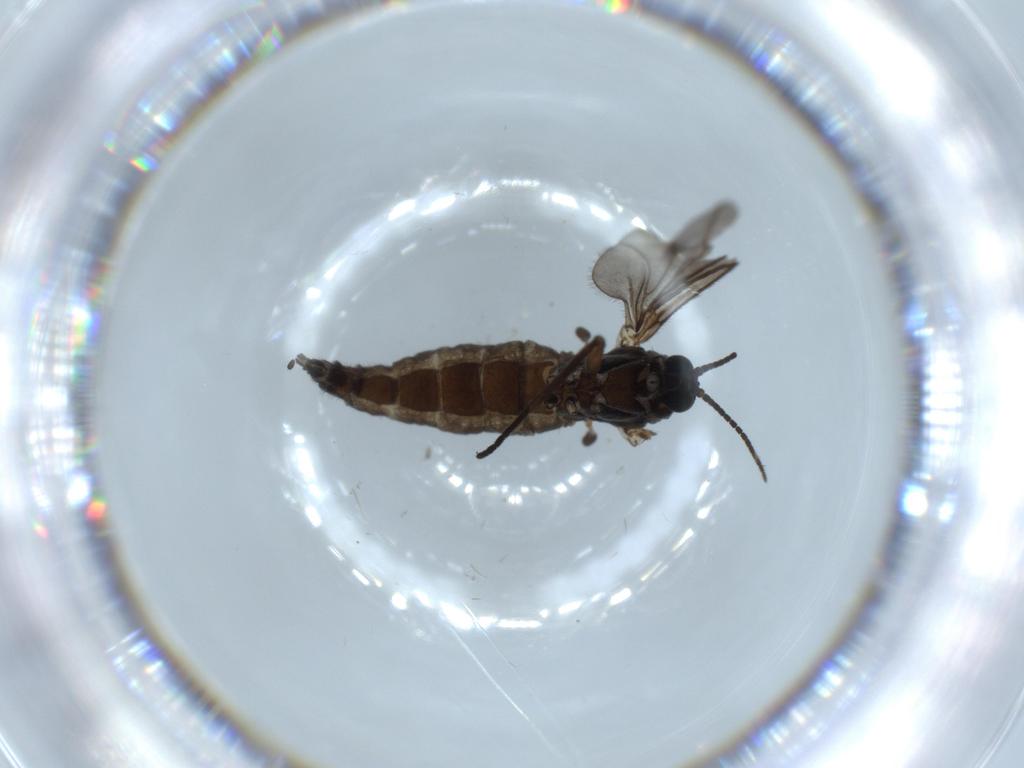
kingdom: Animalia
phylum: Arthropoda
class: Insecta
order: Diptera
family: Sciaridae
